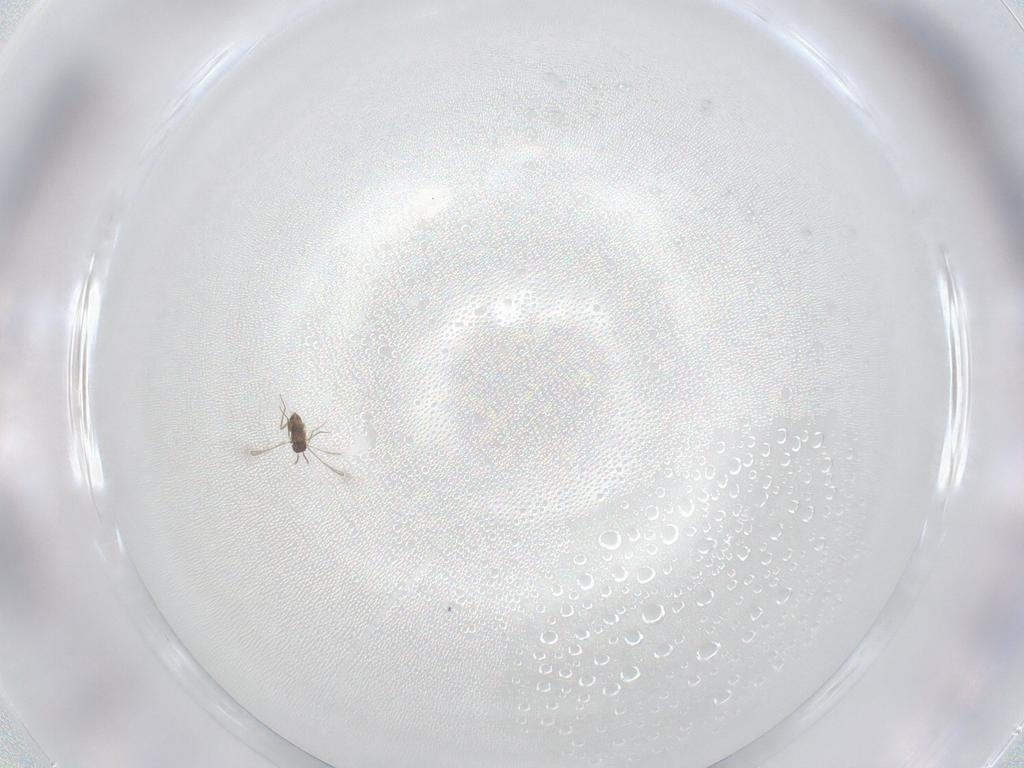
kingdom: Animalia
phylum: Arthropoda
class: Insecta
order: Hymenoptera
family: Mymaridae
